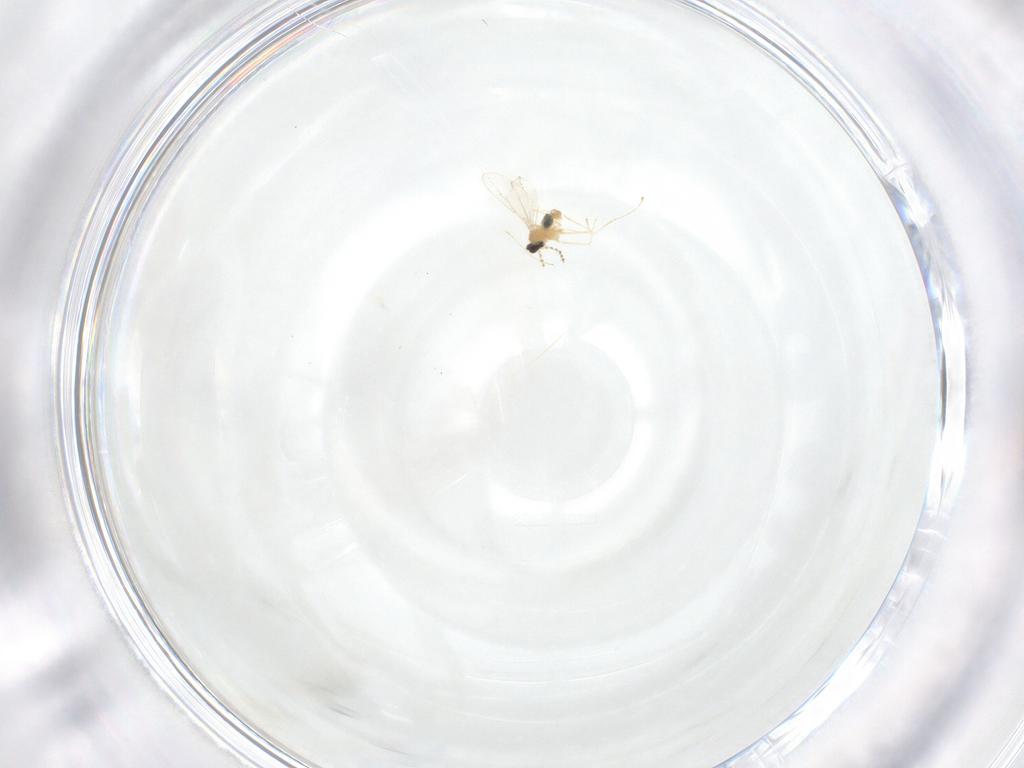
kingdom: Animalia
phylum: Arthropoda
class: Insecta
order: Diptera
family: Cecidomyiidae
